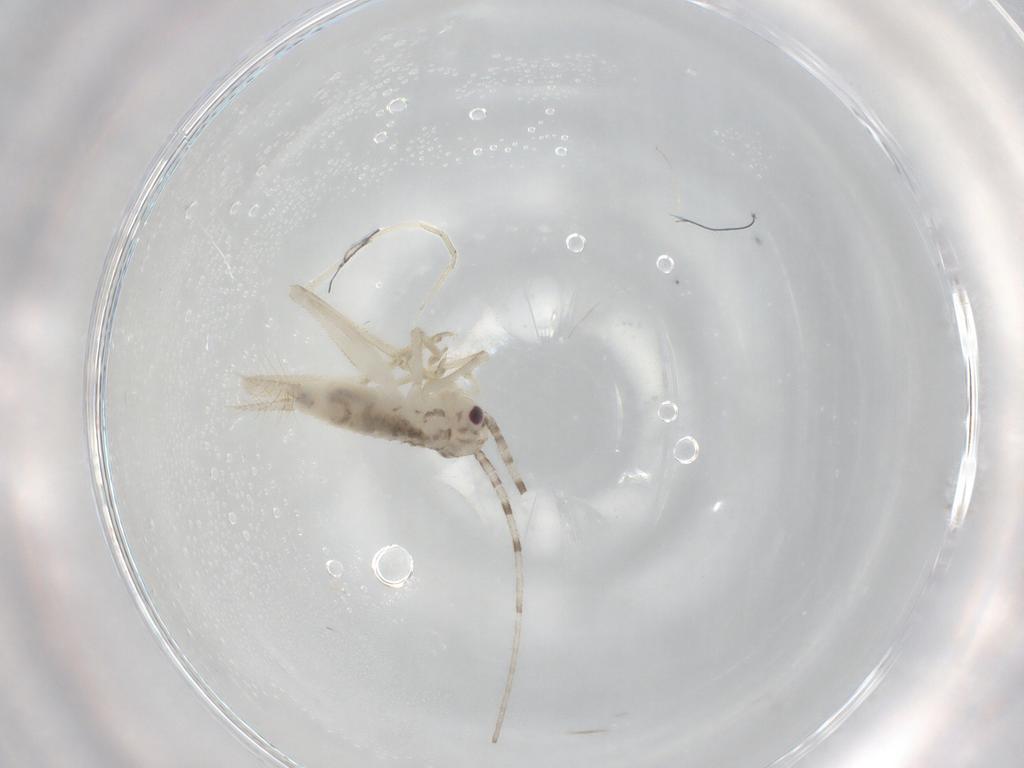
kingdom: Animalia
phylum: Arthropoda
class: Insecta
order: Orthoptera
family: Trigonidiidae
